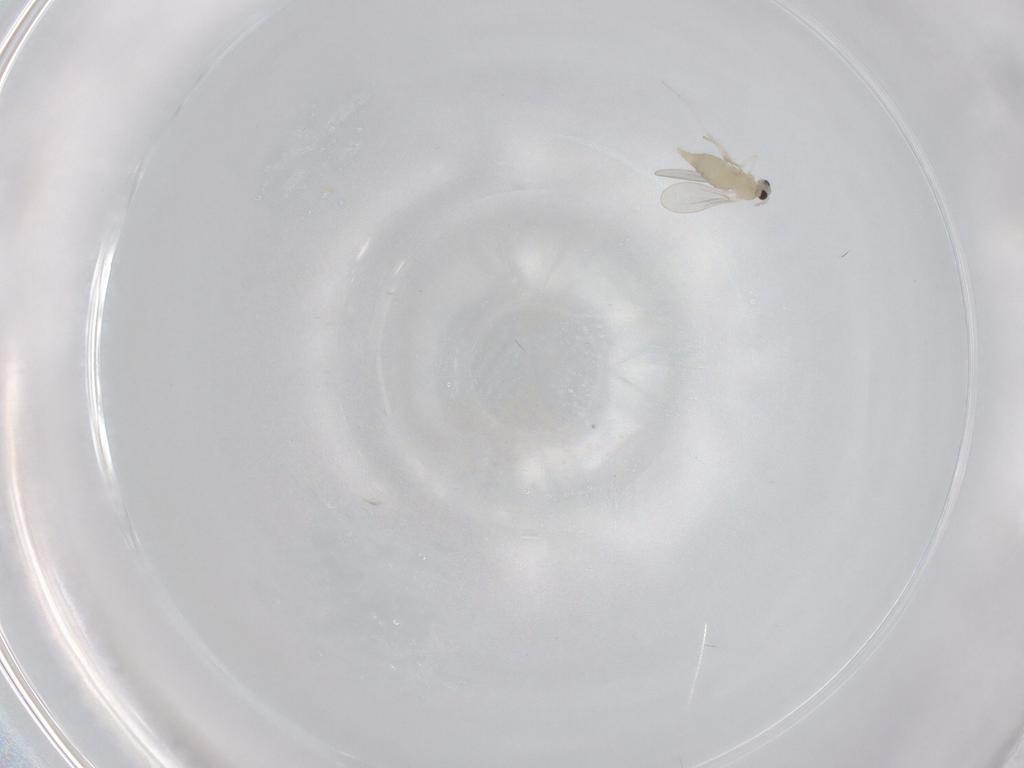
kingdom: Animalia
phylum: Arthropoda
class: Insecta
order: Diptera
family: Cecidomyiidae
